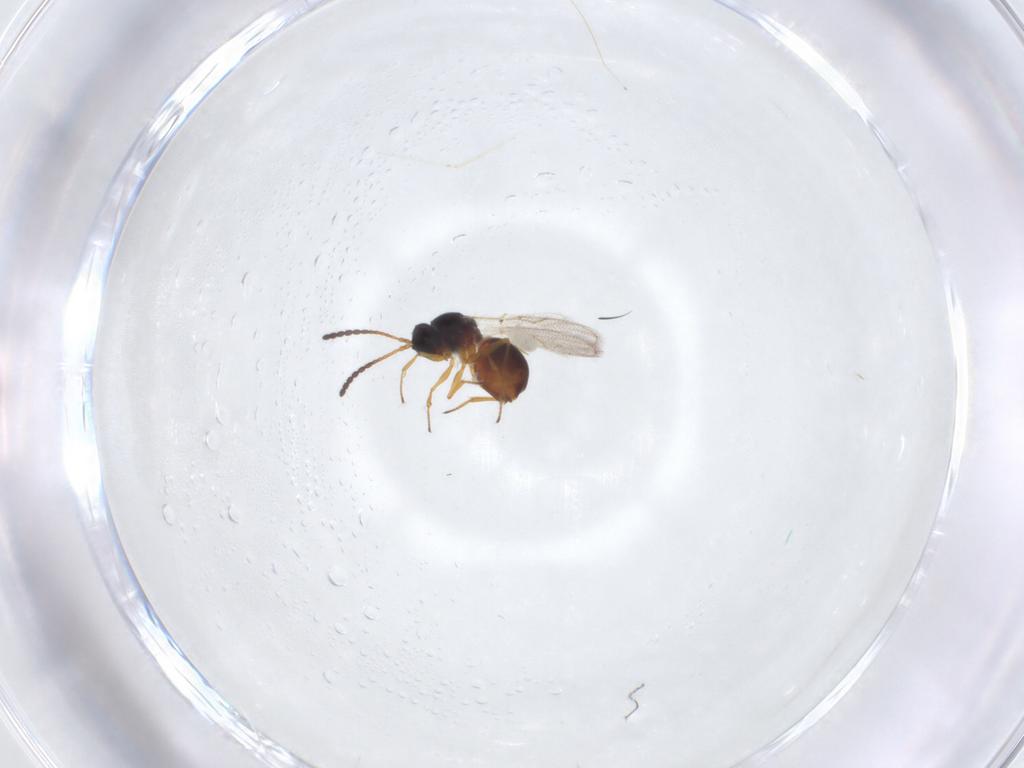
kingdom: Animalia
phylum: Arthropoda
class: Insecta
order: Hymenoptera
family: Figitidae
